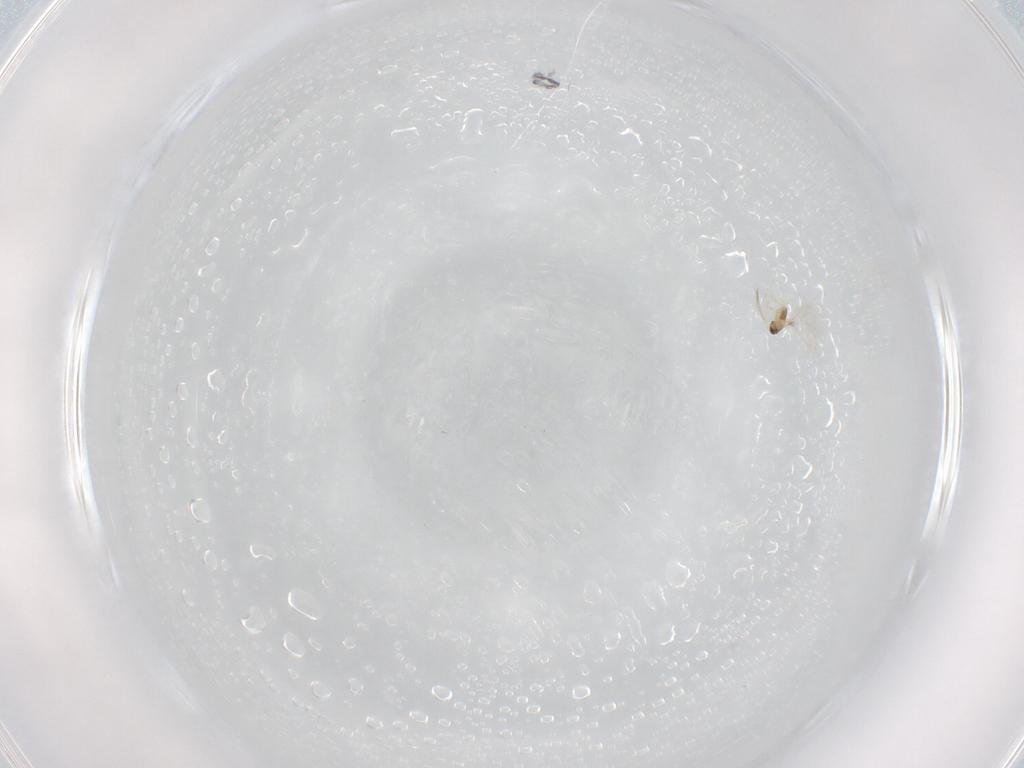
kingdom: Animalia
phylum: Arthropoda
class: Insecta
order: Hymenoptera
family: Mymaridae
